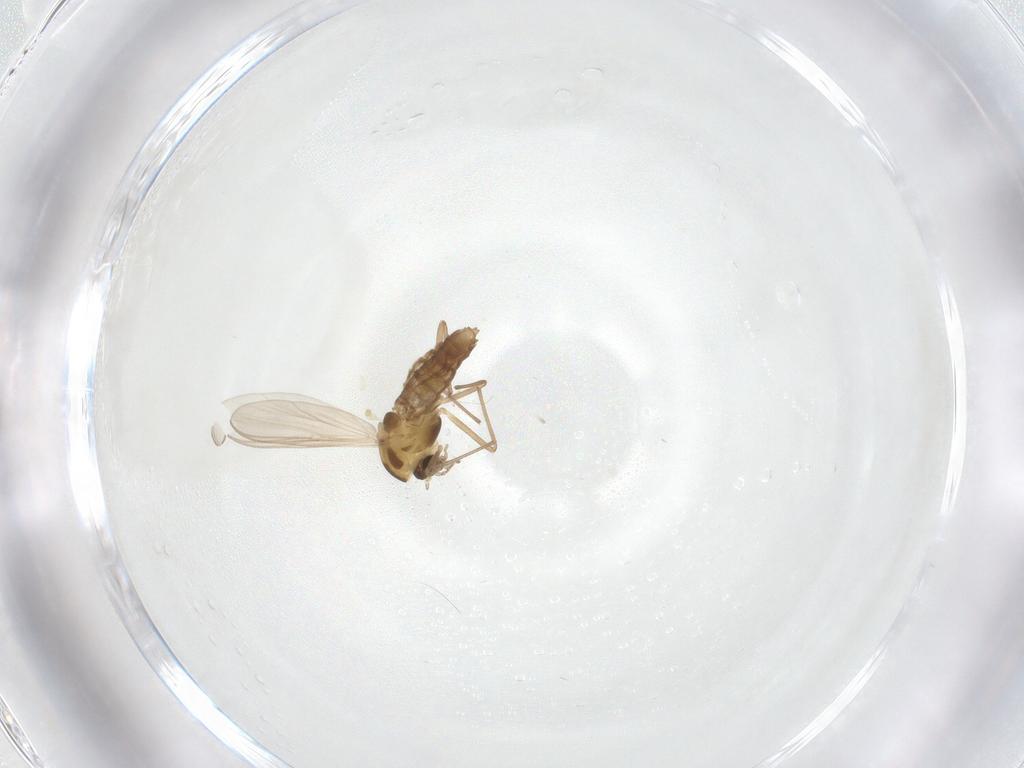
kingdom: Animalia
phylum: Arthropoda
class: Insecta
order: Diptera
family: Chironomidae
